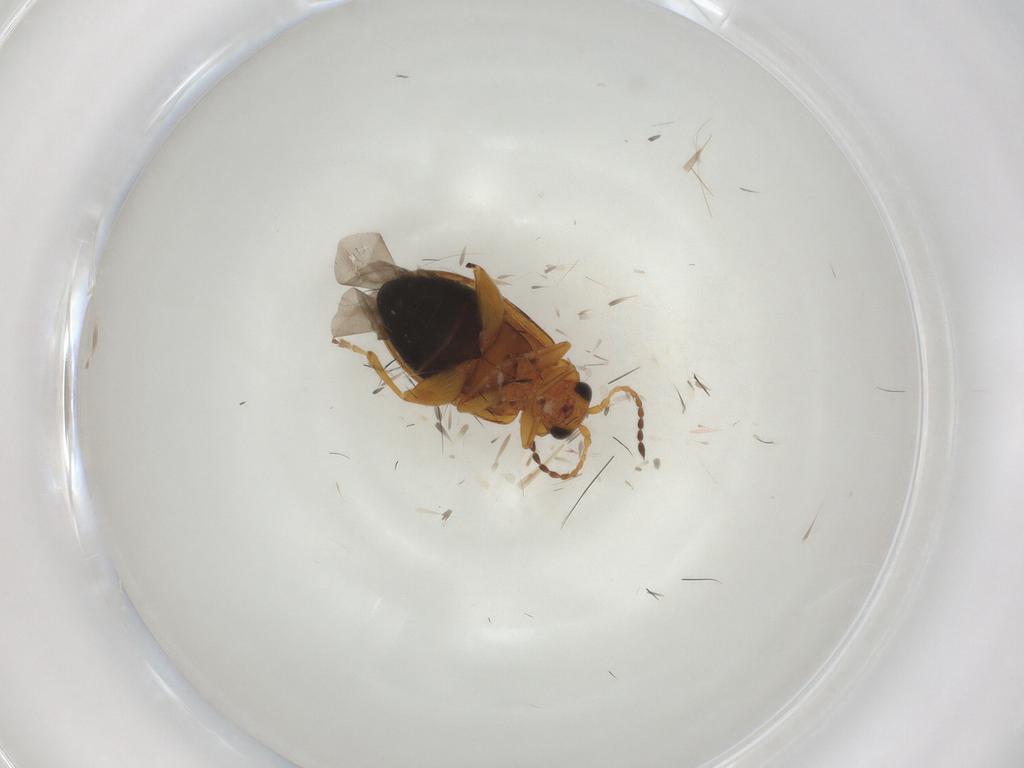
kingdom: Animalia
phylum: Arthropoda
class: Insecta
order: Coleoptera
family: Chrysomelidae
